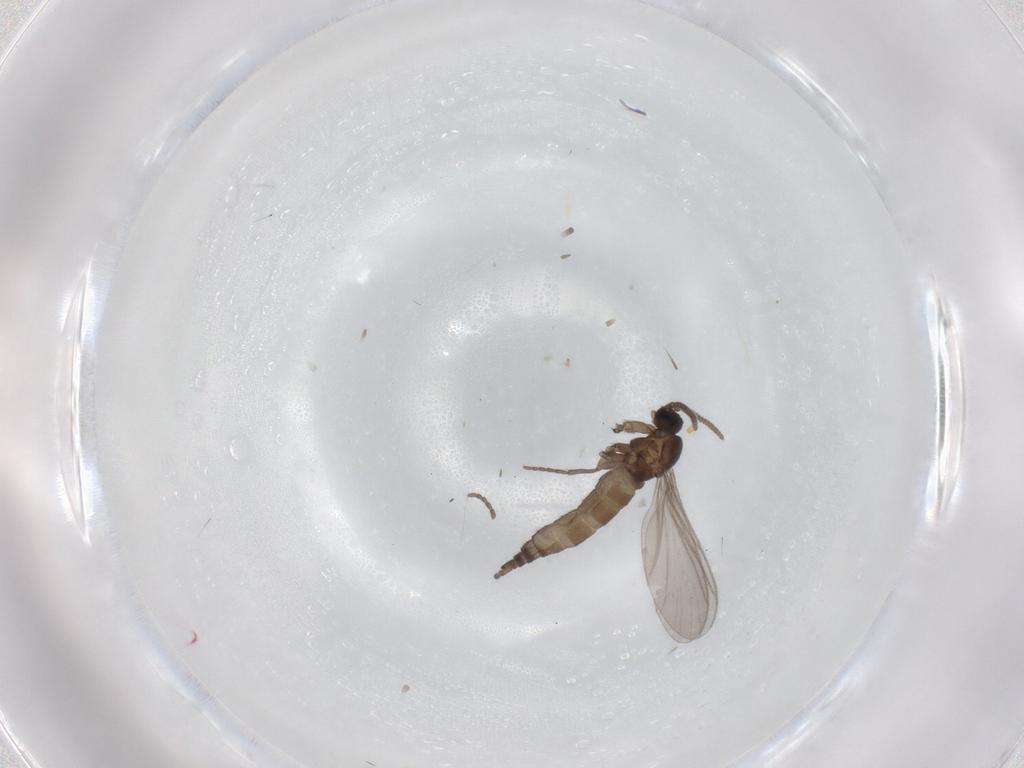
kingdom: Animalia
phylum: Arthropoda
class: Insecta
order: Diptera
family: Sciaridae
